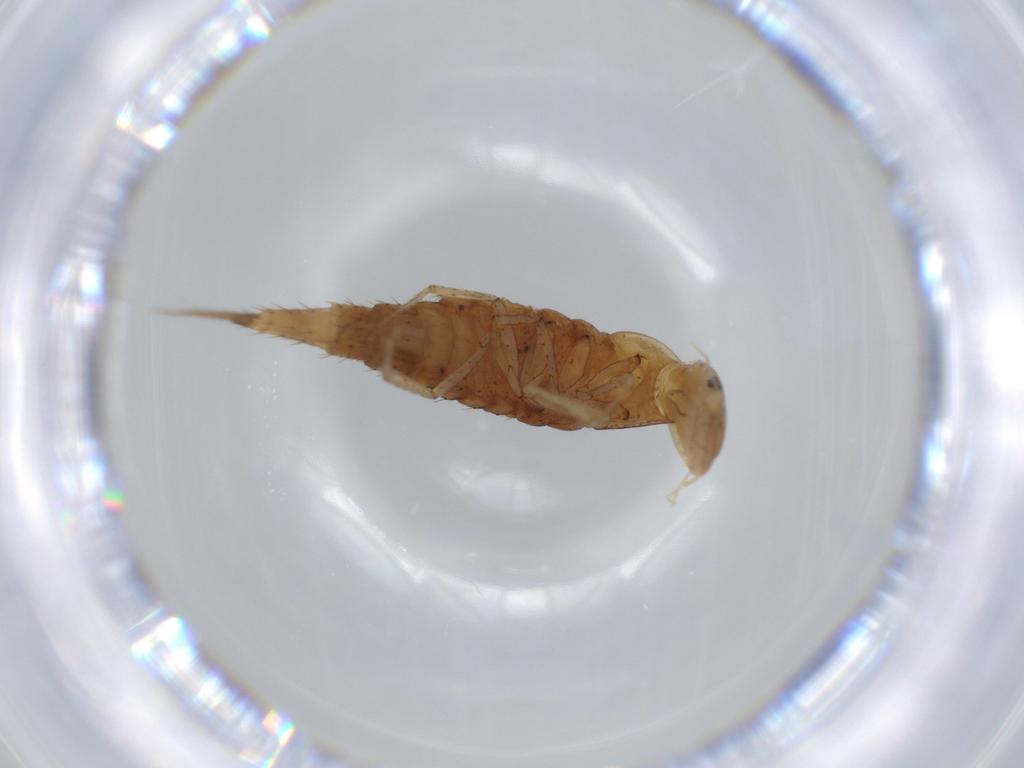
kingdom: Animalia
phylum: Arthropoda
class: Insecta
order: Coleoptera
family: Dytiscidae
